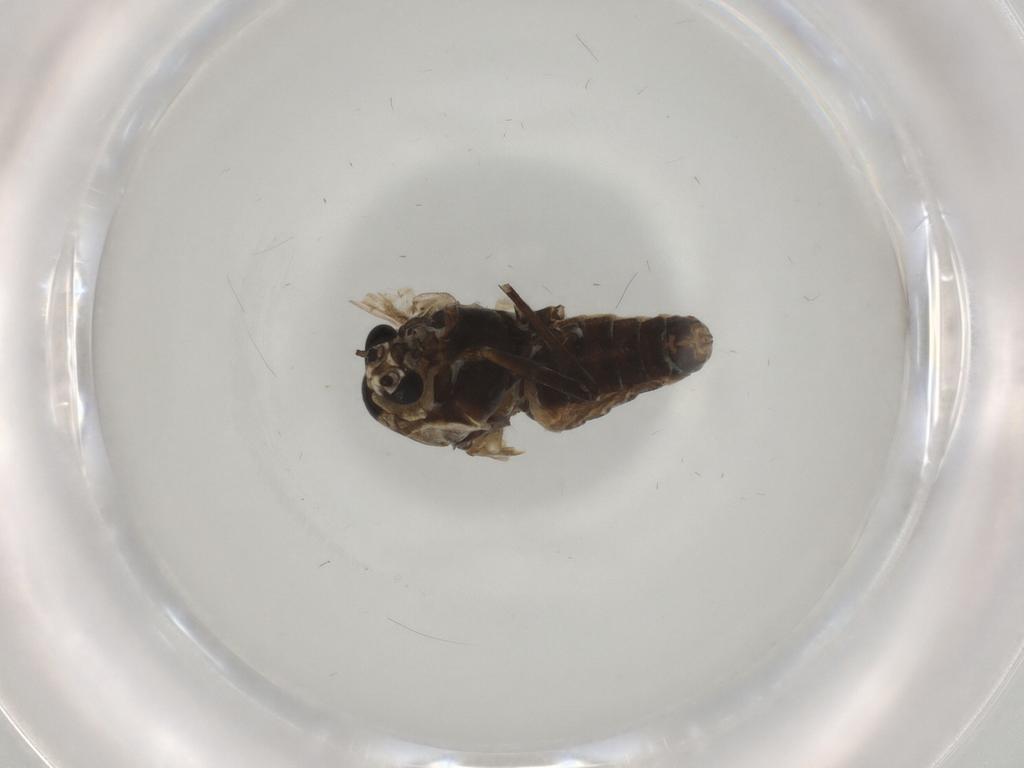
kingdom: Animalia
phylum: Arthropoda
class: Insecta
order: Diptera
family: Chironomidae
